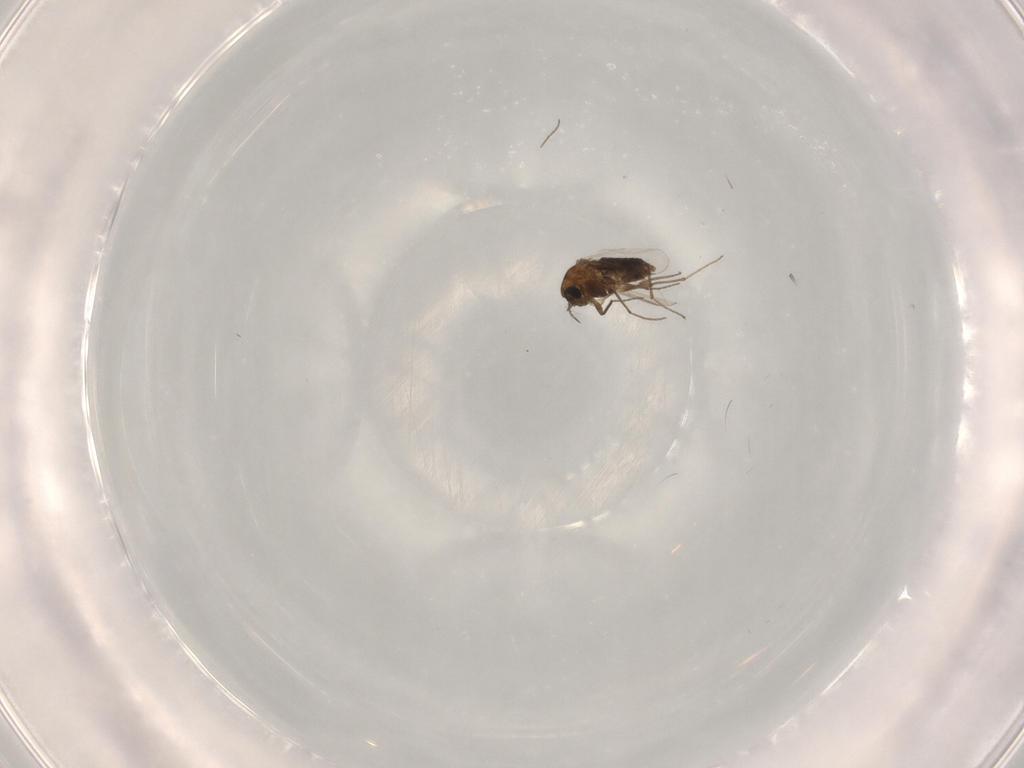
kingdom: Animalia
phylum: Arthropoda
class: Insecta
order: Diptera
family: Chironomidae
